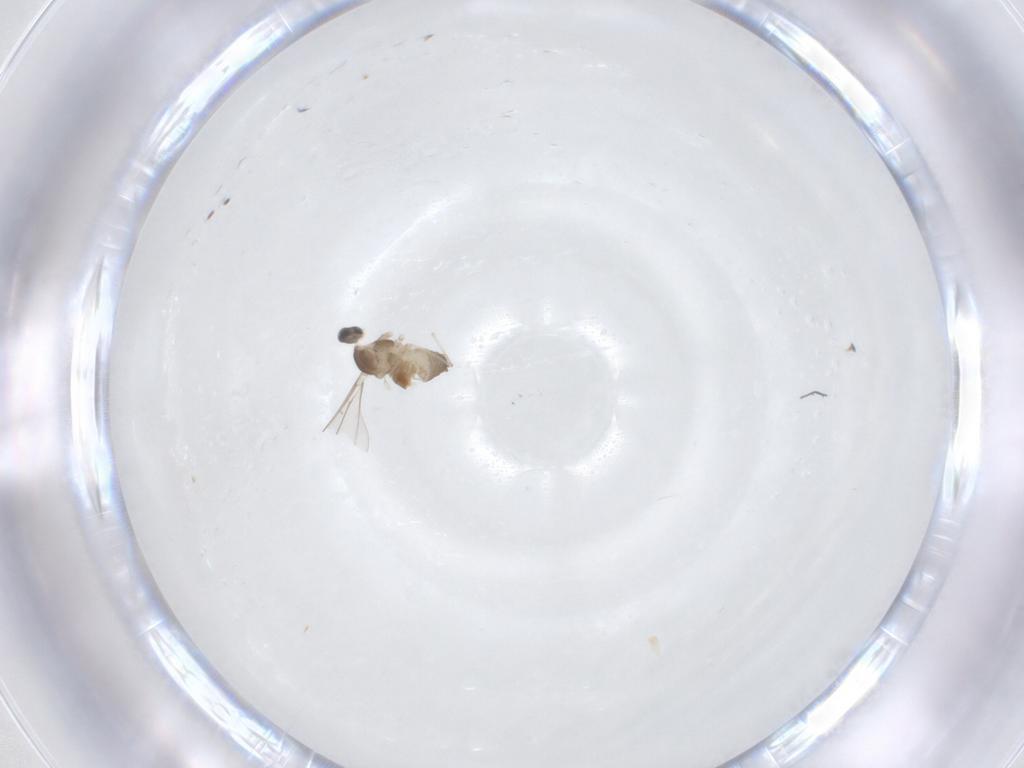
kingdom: Animalia
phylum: Arthropoda
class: Insecta
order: Diptera
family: Cecidomyiidae
